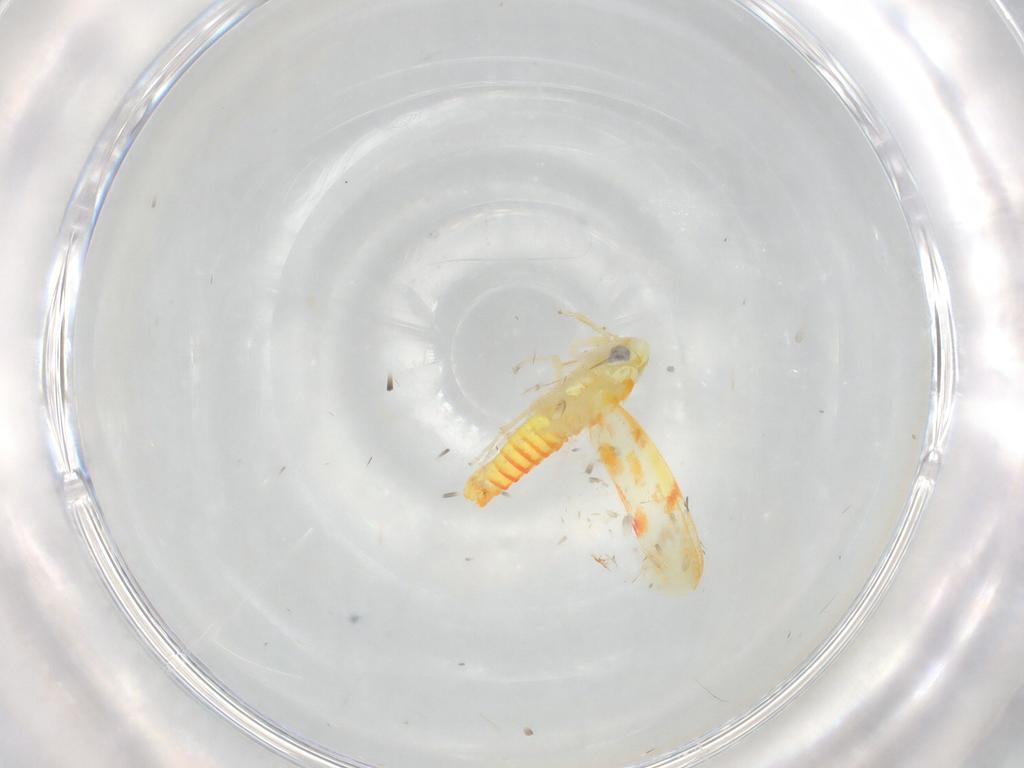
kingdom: Animalia
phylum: Arthropoda
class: Insecta
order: Hemiptera
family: Cicadellidae
